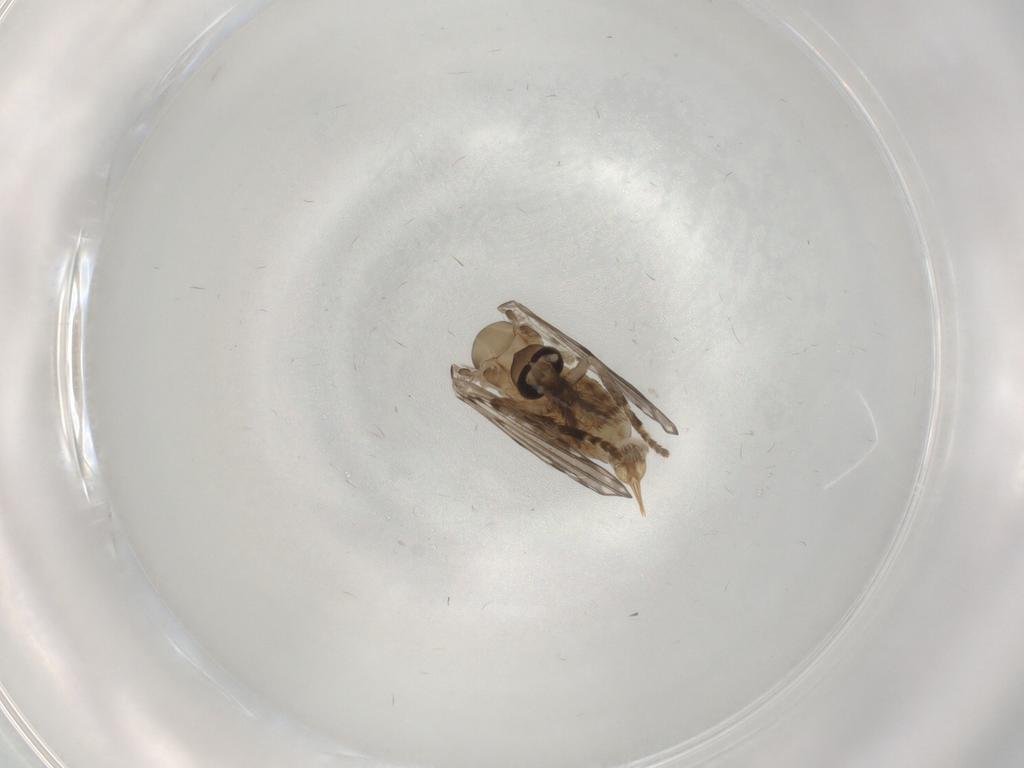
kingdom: Animalia
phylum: Arthropoda
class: Insecta
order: Diptera
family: Psychodidae
